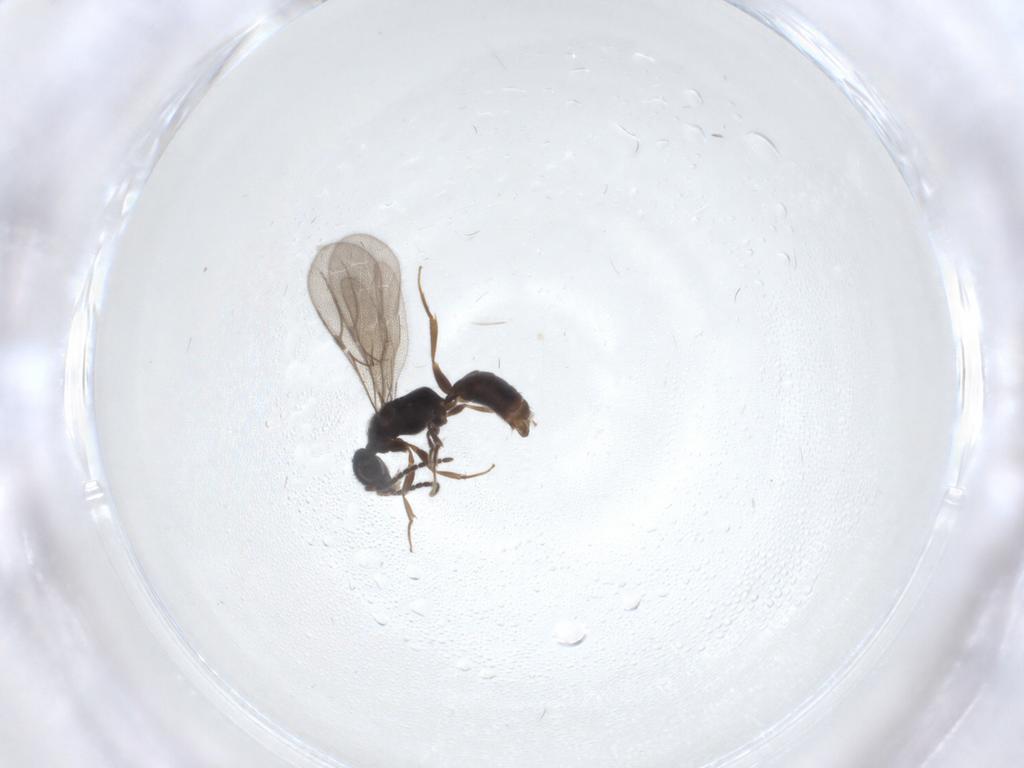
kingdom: Animalia
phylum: Arthropoda
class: Insecta
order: Hymenoptera
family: Bethylidae
